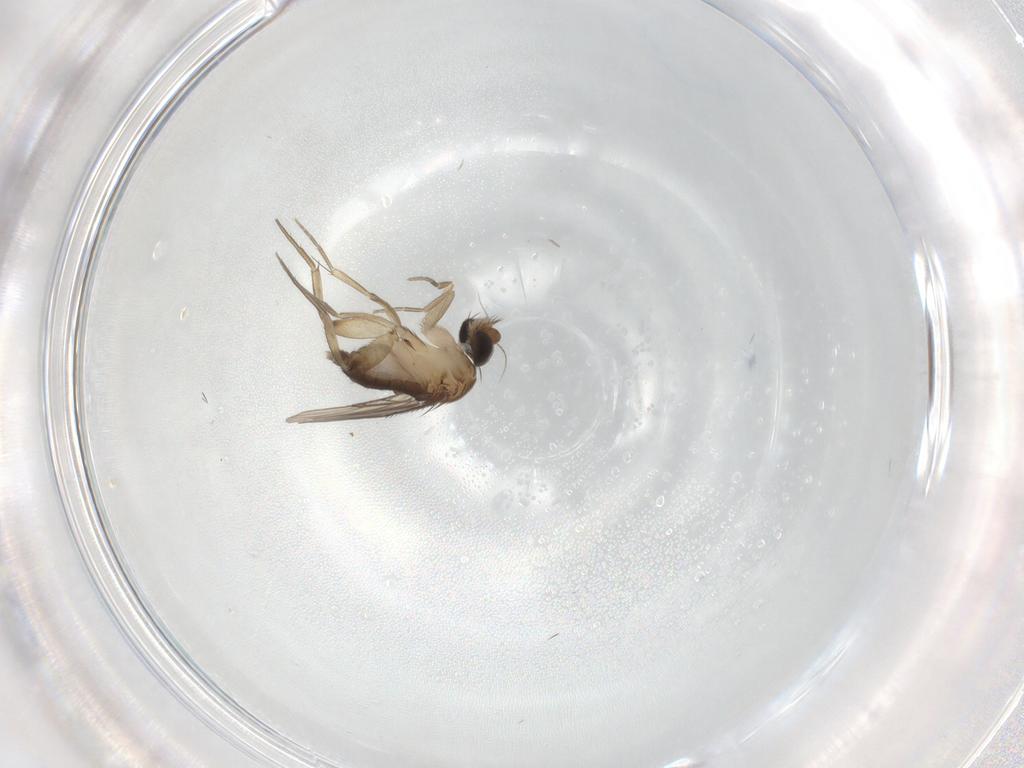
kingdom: Animalia
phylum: Arthropoda
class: Insecta
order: Diptera
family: Phoridae
